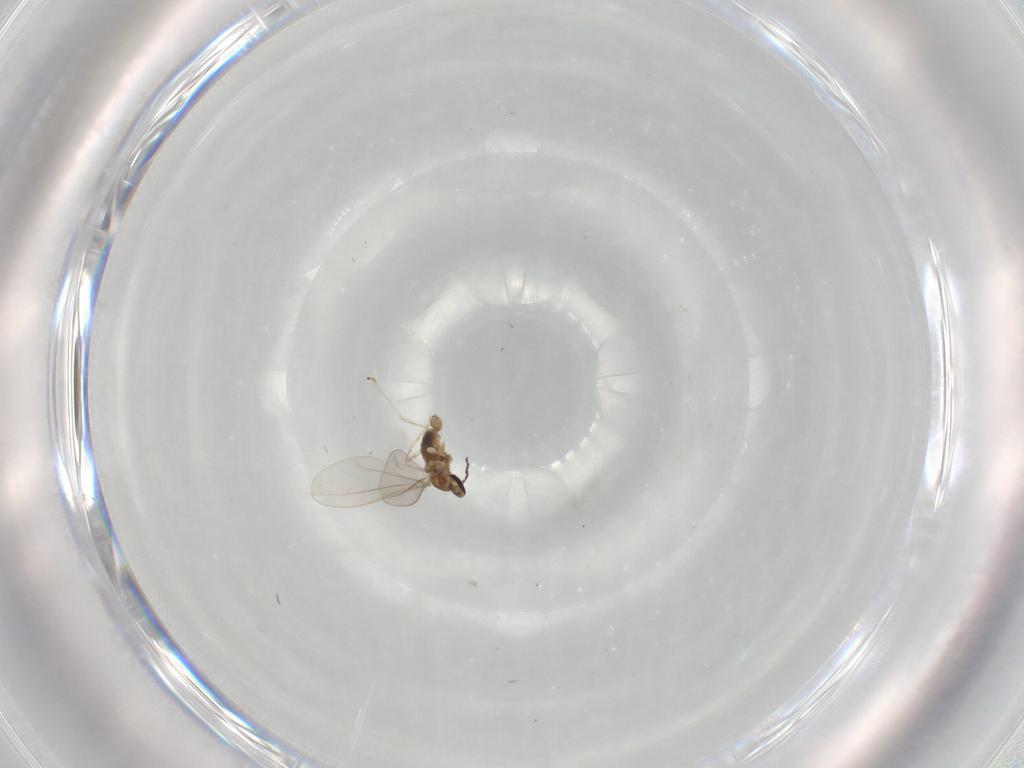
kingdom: Animalia
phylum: Arthropoda
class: Insecta
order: Diptera
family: Cecidomyiidae
